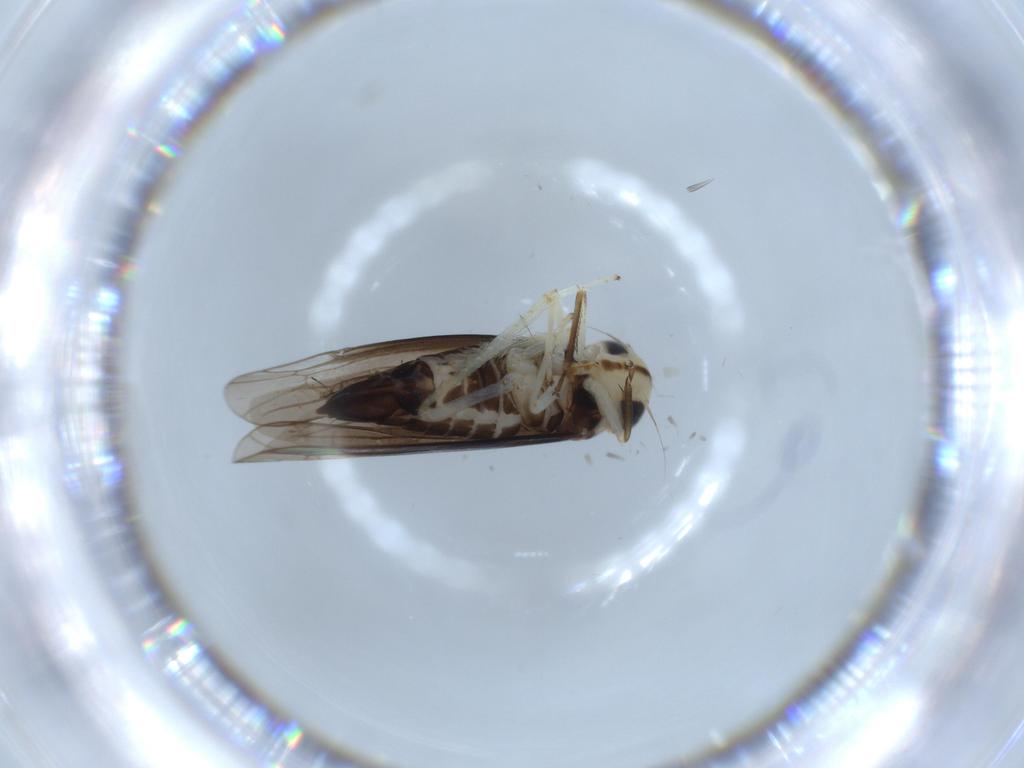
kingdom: Animalia
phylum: Arthropoda
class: Insecta
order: Hemiptera
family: Cicadellidae
